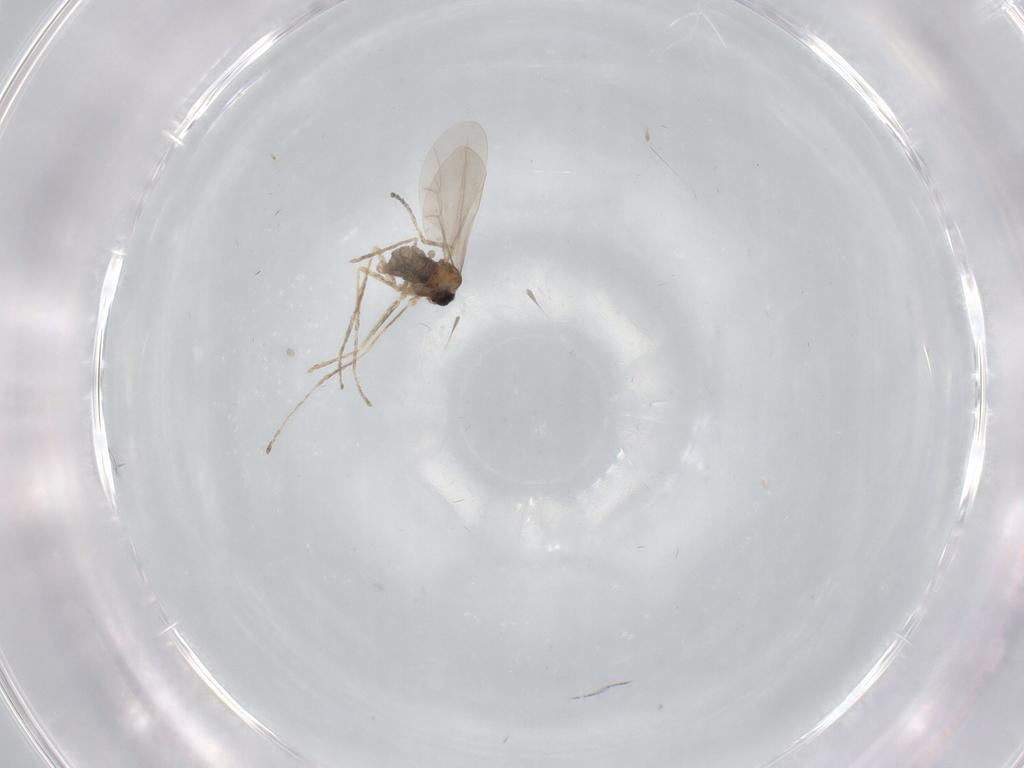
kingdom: Animalia
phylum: Arthropoda
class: Insecta
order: Diptera
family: Cecidomyiidae
